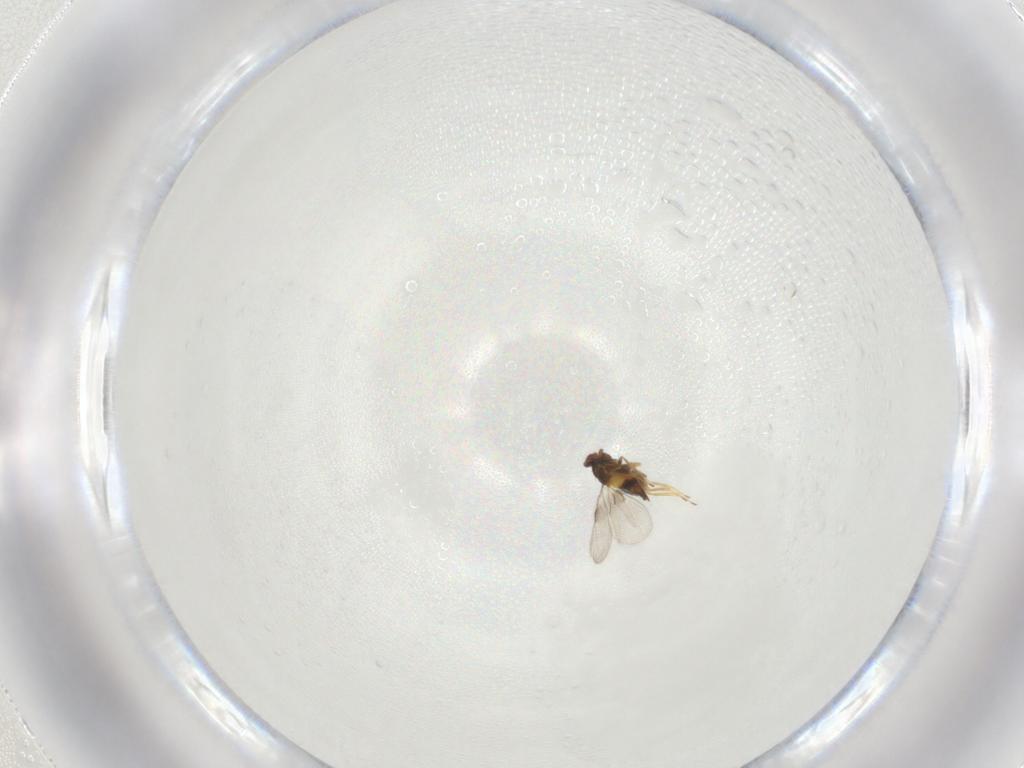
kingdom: Animalia
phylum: Arthropoda
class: Insecta
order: Hymenoptera
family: Trichogrammatidae
